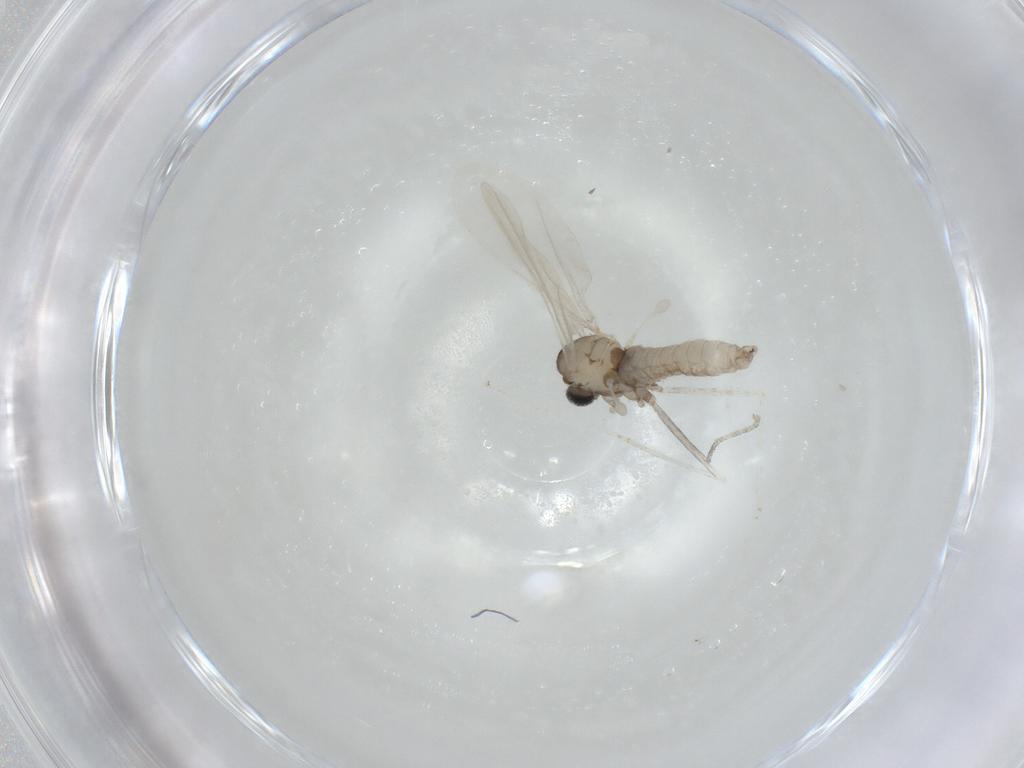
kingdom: Animalia
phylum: Arthropoda
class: Insecta
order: Diptera
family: Cecidomyiidae
